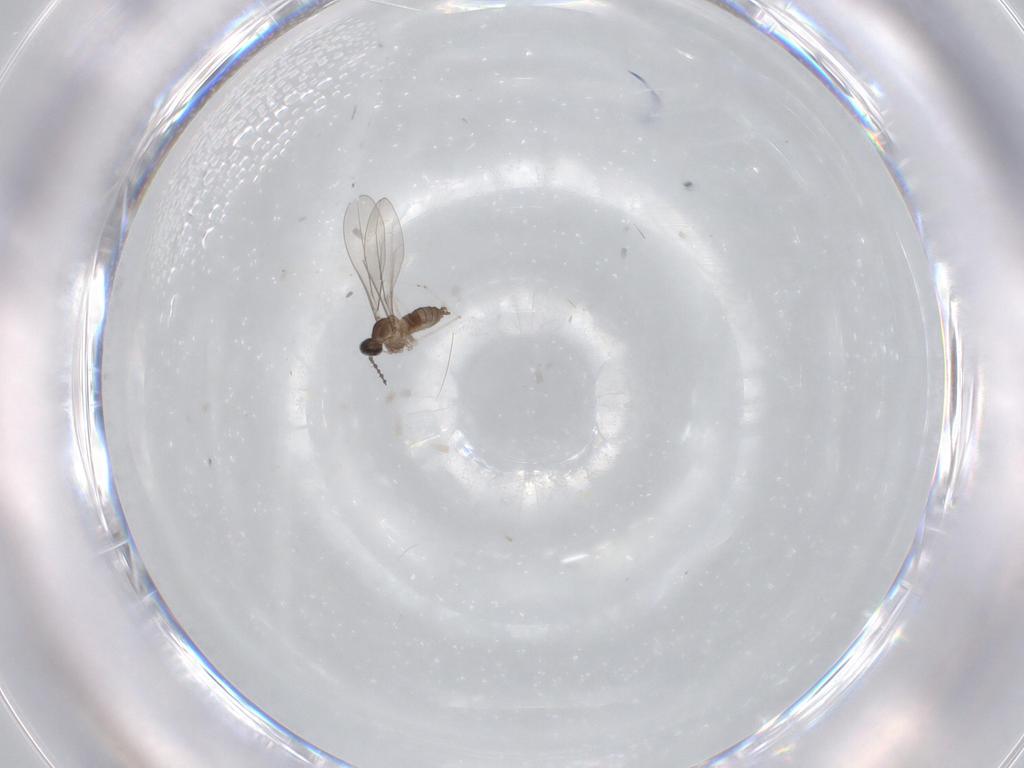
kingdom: Animalia
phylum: Arthropoda
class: Insecta
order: Diptera
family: Cecidomyiidae
